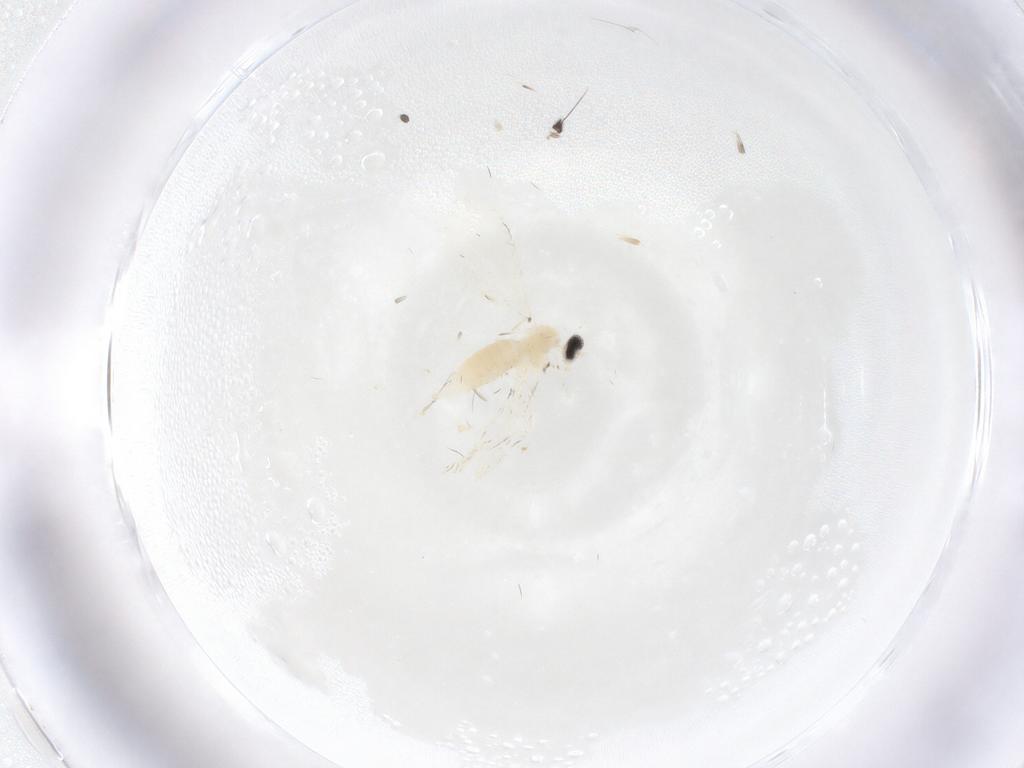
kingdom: Animalia
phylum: Arthropoda
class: Insecta
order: Diptera
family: Cecidomyiidae
